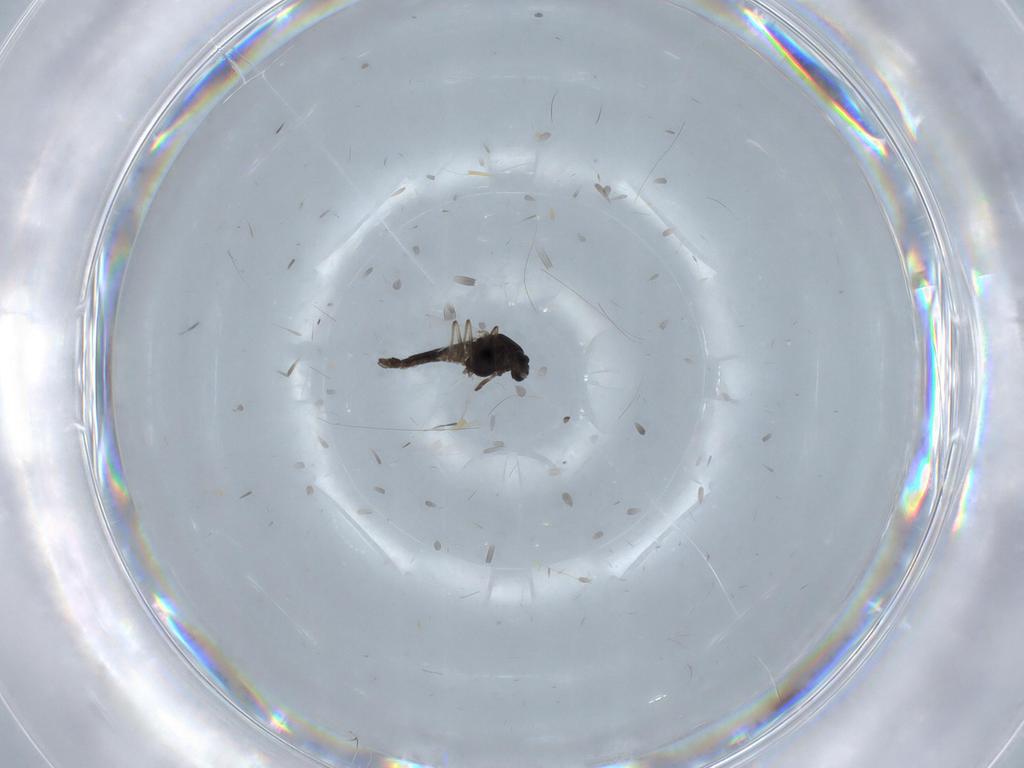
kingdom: Animalia
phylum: Arthropoda
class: Insecta
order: Diptera
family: Chironomidae
